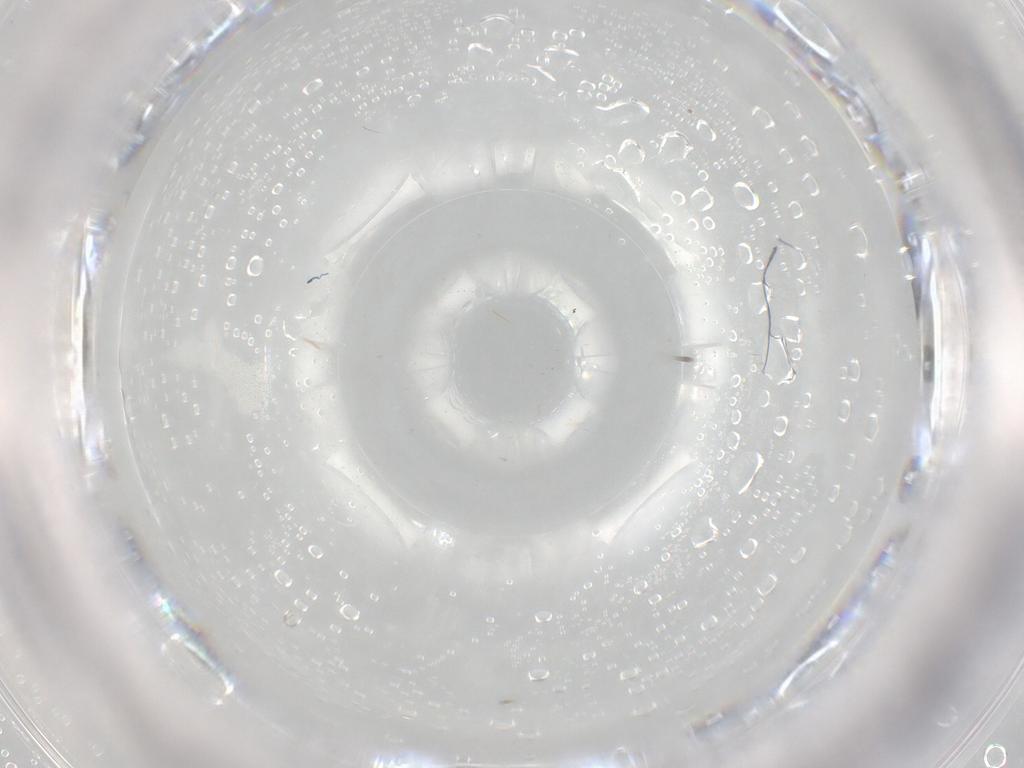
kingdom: Animalia
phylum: Arthropoda
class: Insecta
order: Diptera
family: Cecidomyiidae
